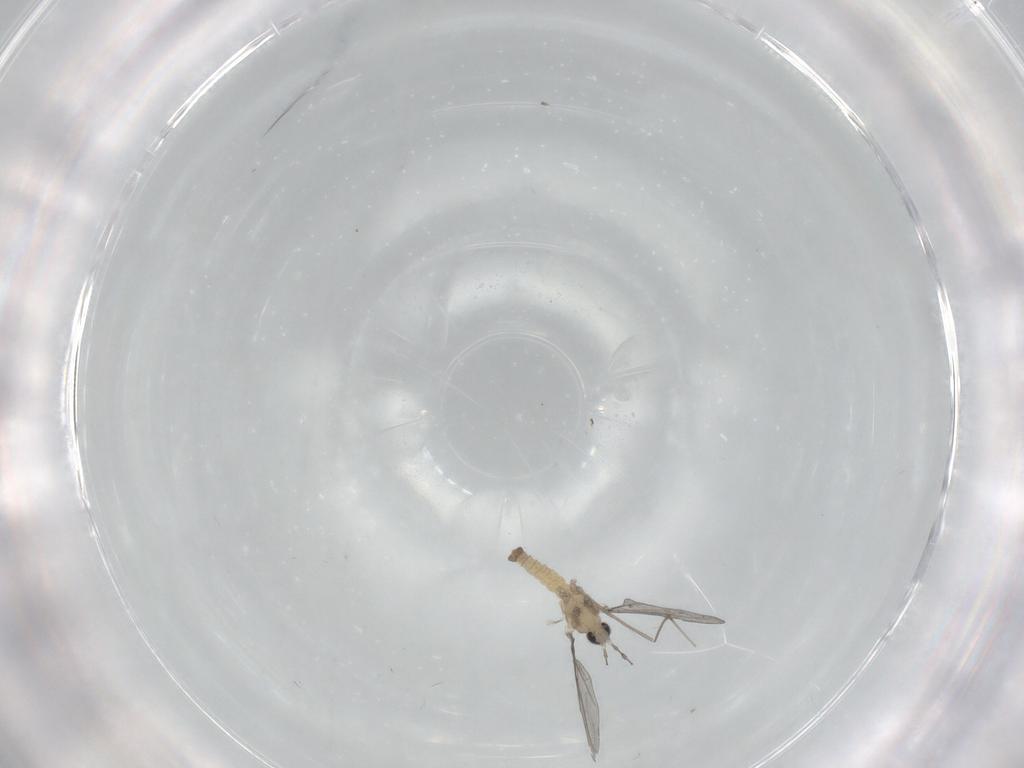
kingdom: Animalia
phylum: Arthropoda
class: Insecta
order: Diptera
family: Cecidomyiidae
